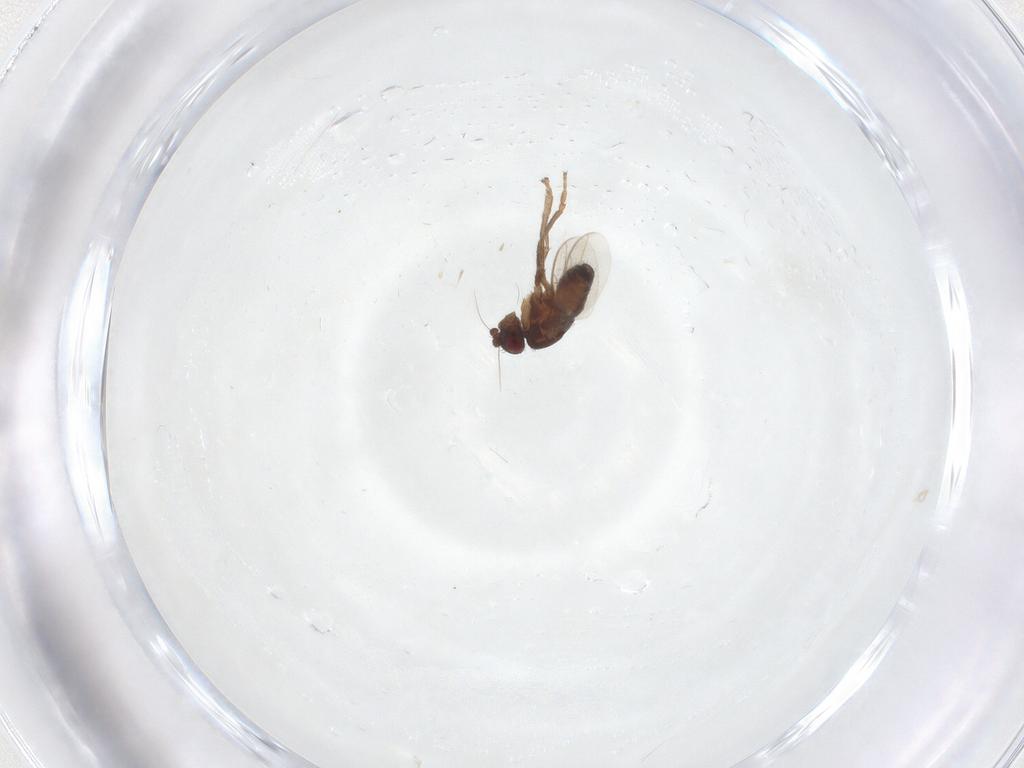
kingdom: Animalia
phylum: Arthropoda
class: Insecta
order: Diptera
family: Sphaeroceridae
